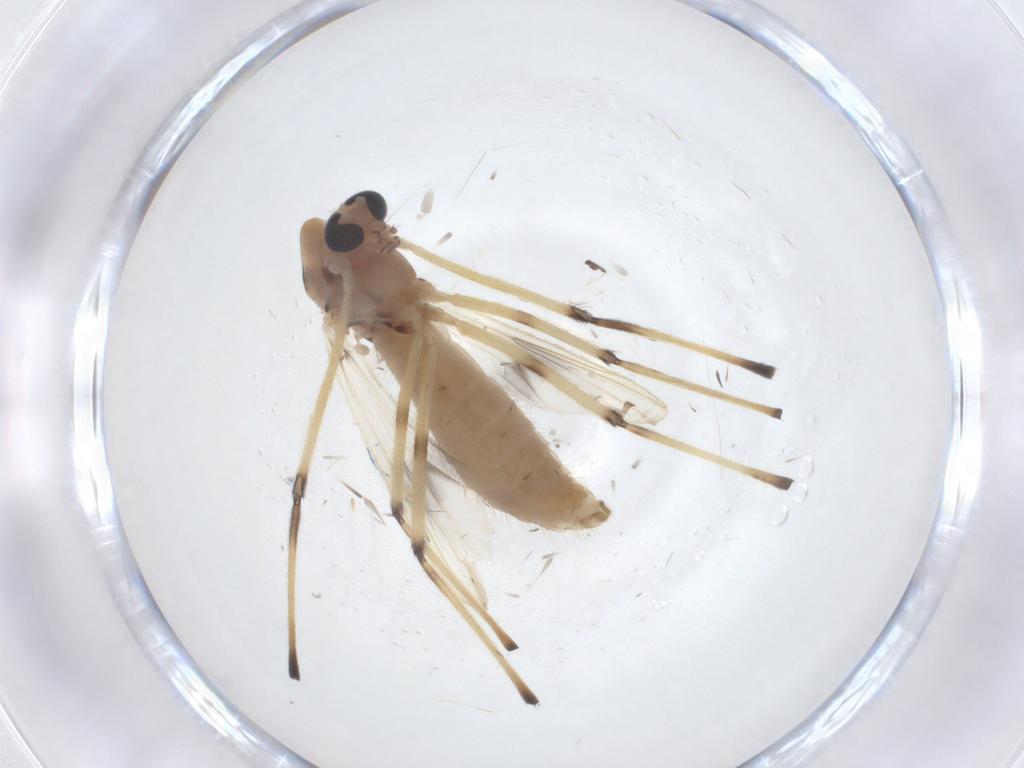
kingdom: Animalia
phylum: Arthropoda
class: Insecta
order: Diptera
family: Chironomidae
